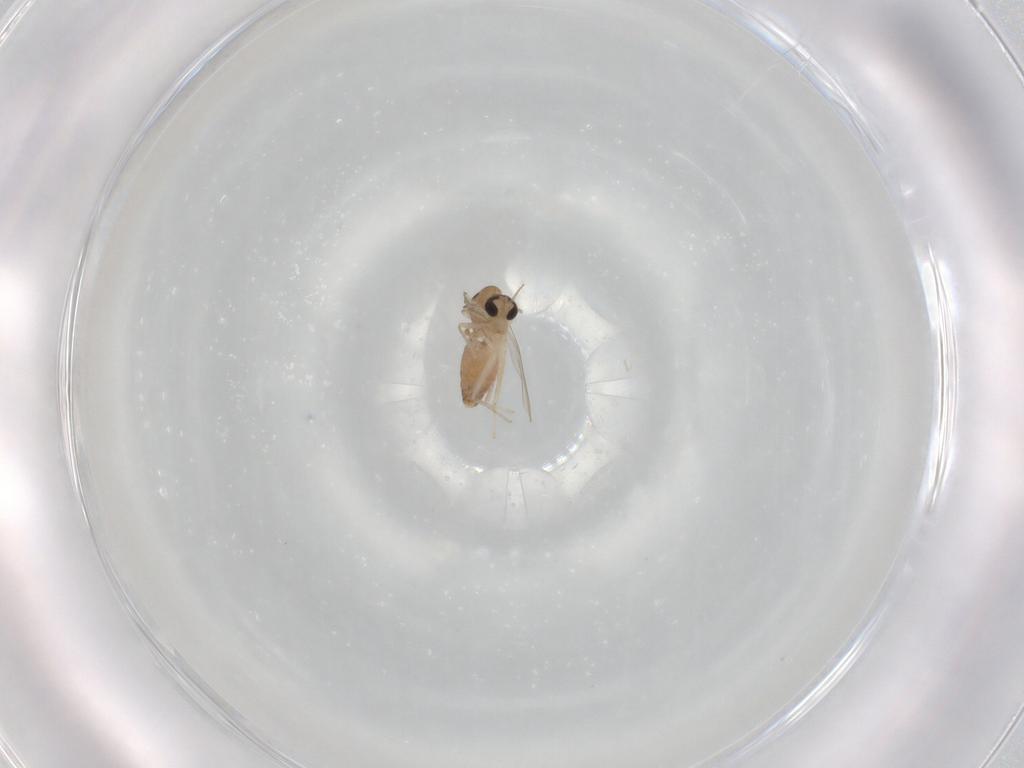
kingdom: Animalia
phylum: Arthropoda
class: Insecta
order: Diptera
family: Chironomidae
